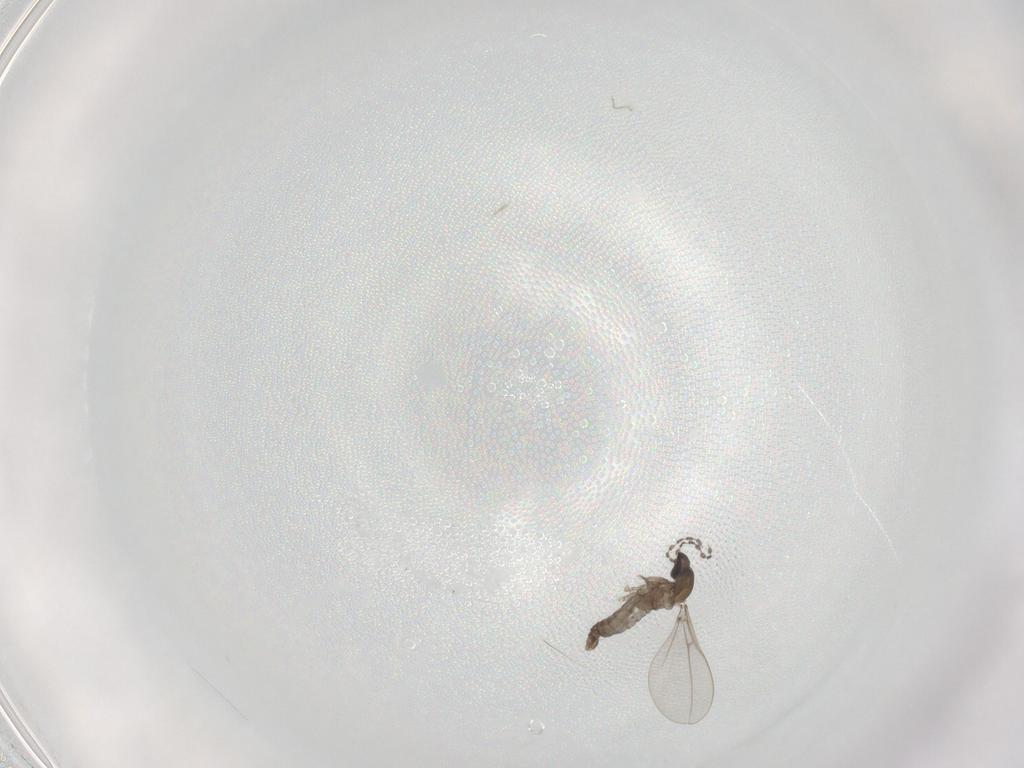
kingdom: Animalia
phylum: Arthropoda
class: Insecta
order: Diptera
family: Cecidomyiidae
